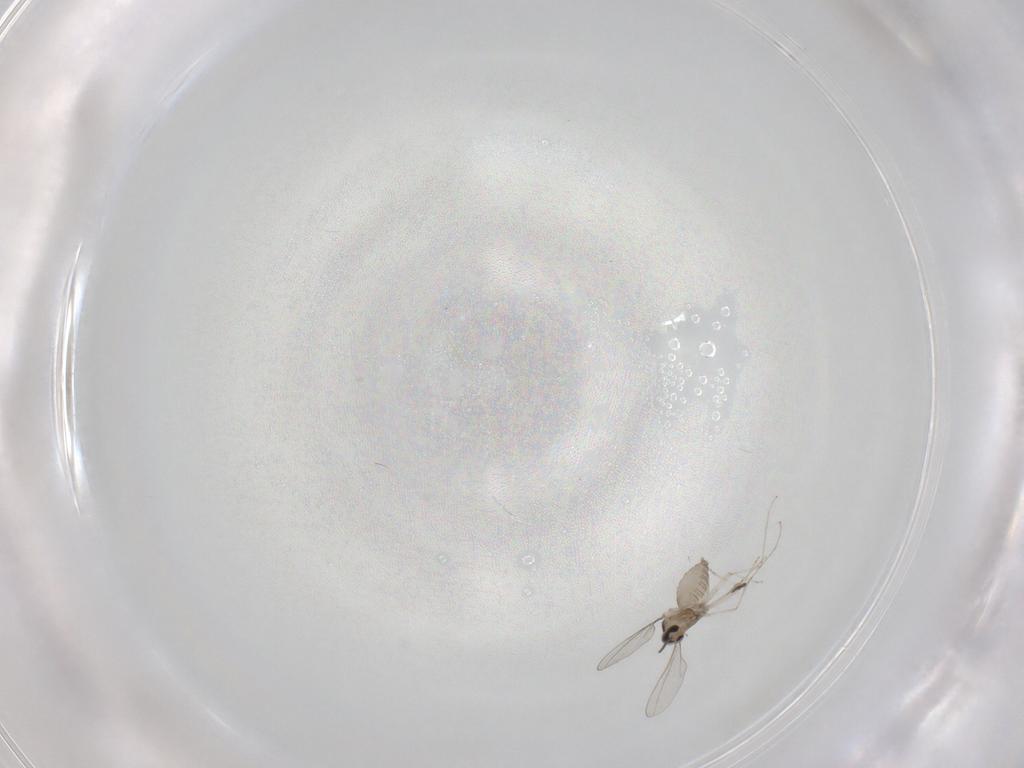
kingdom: Animalia
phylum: Arthropoda
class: Insecta
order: Diptera
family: Cecidomyiidae
